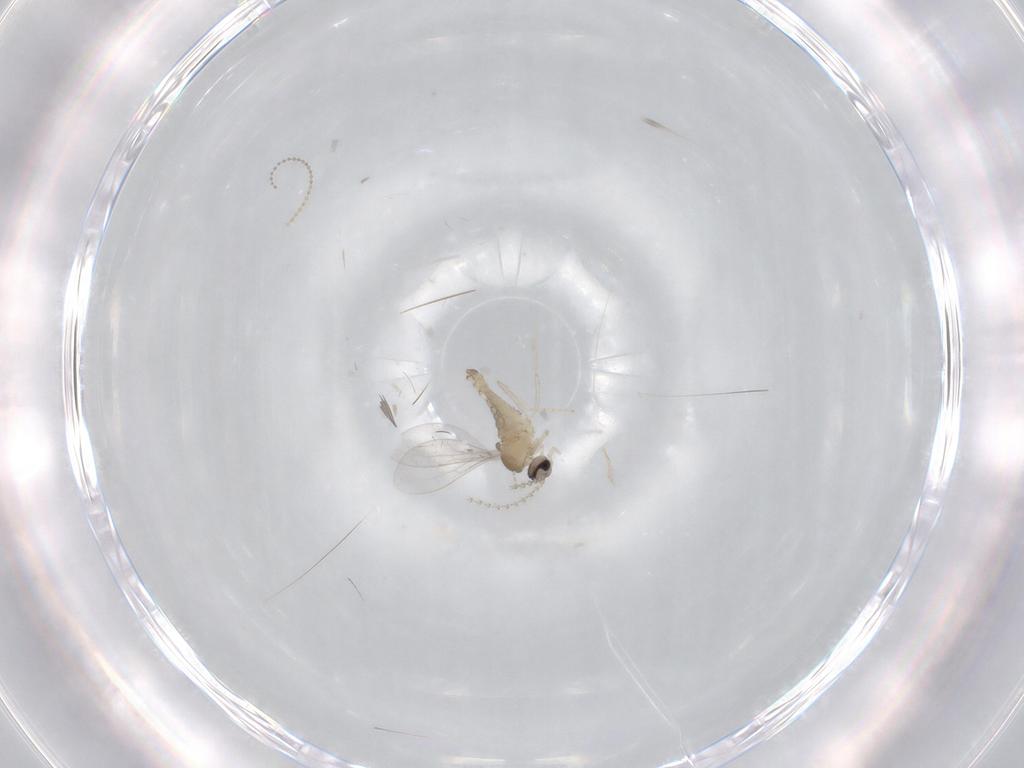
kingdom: Animalia
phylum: Arthropoda
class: Insecta
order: Diptera
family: Cecidomyiidae
